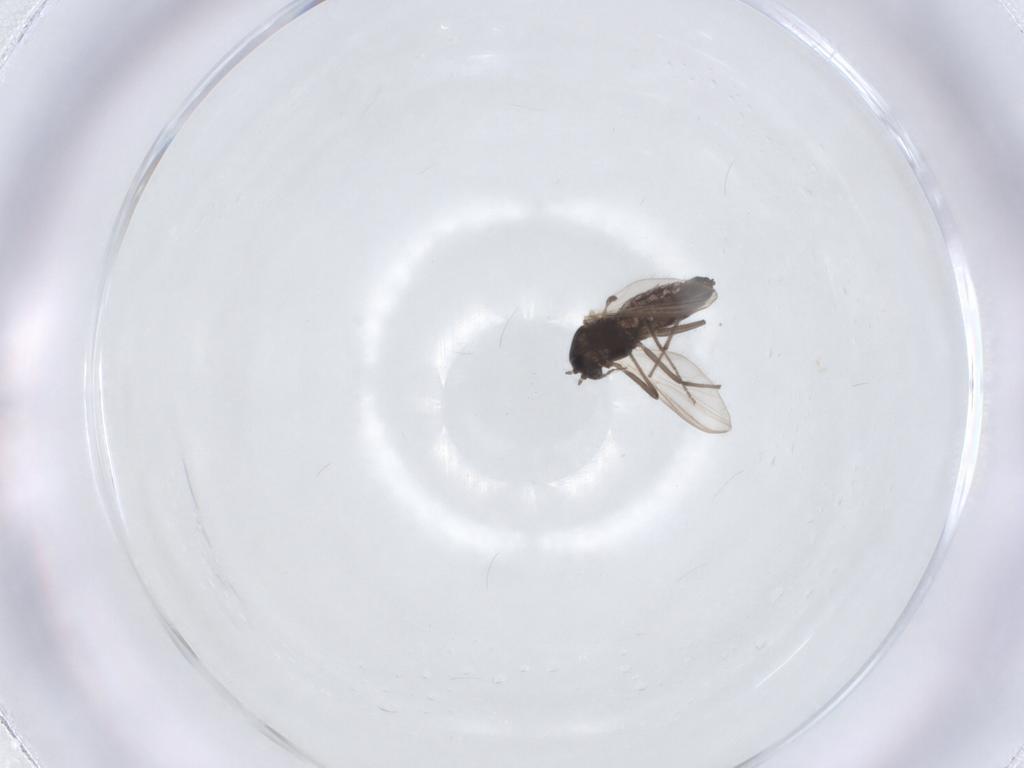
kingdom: Animalia
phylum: Arthropoda
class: Insecta
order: Diptera
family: Chironomidae
